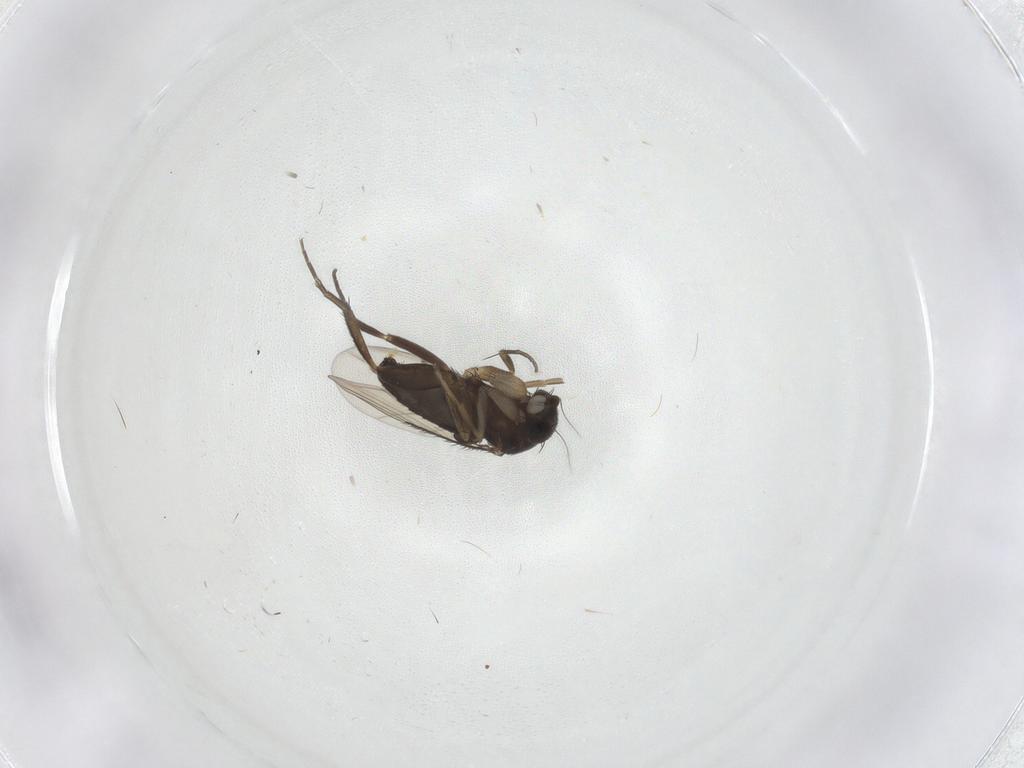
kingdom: Animalia
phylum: Arthropoda
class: Insecta
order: Diptera
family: Phoridae
